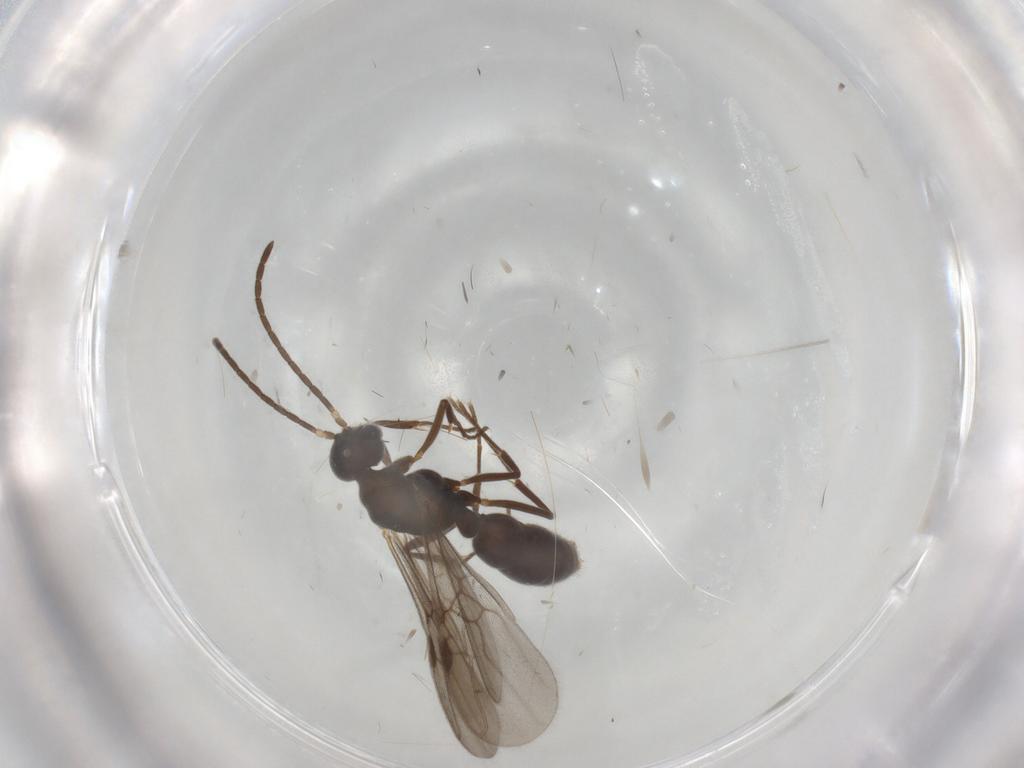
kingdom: Animalia
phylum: Arthropoda
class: Insecta
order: Hymenoptera
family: Formicidae
